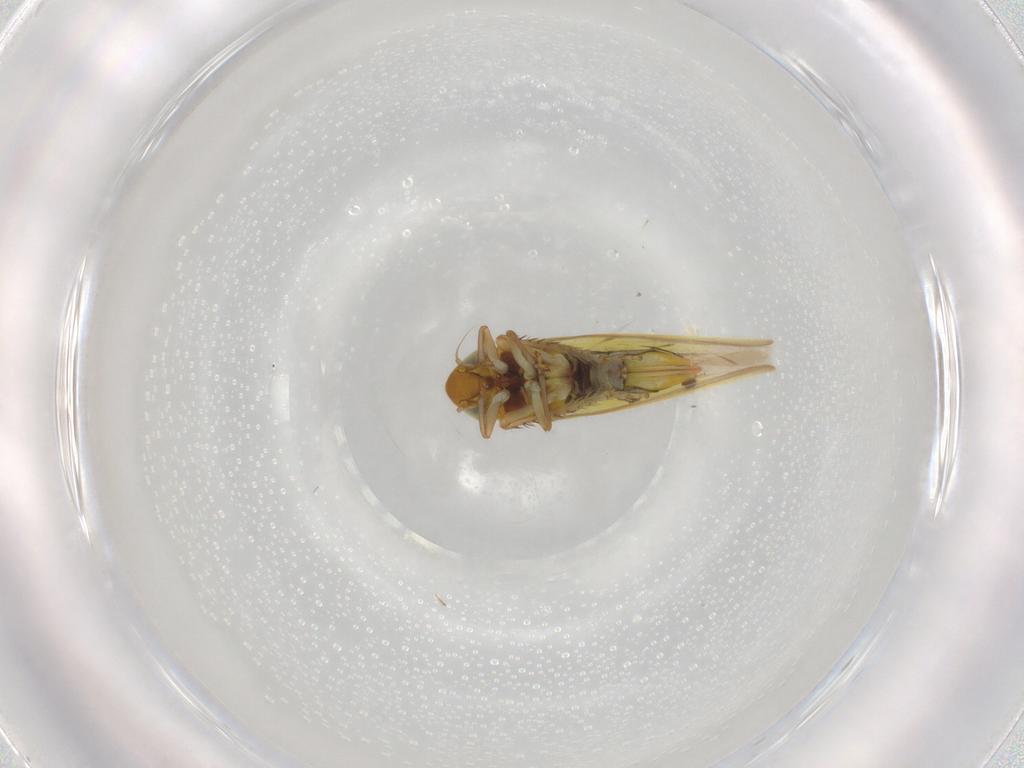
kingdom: Animalia
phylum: Arthropoda
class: Insecta
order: Hemiptera
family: Cicadellidae
